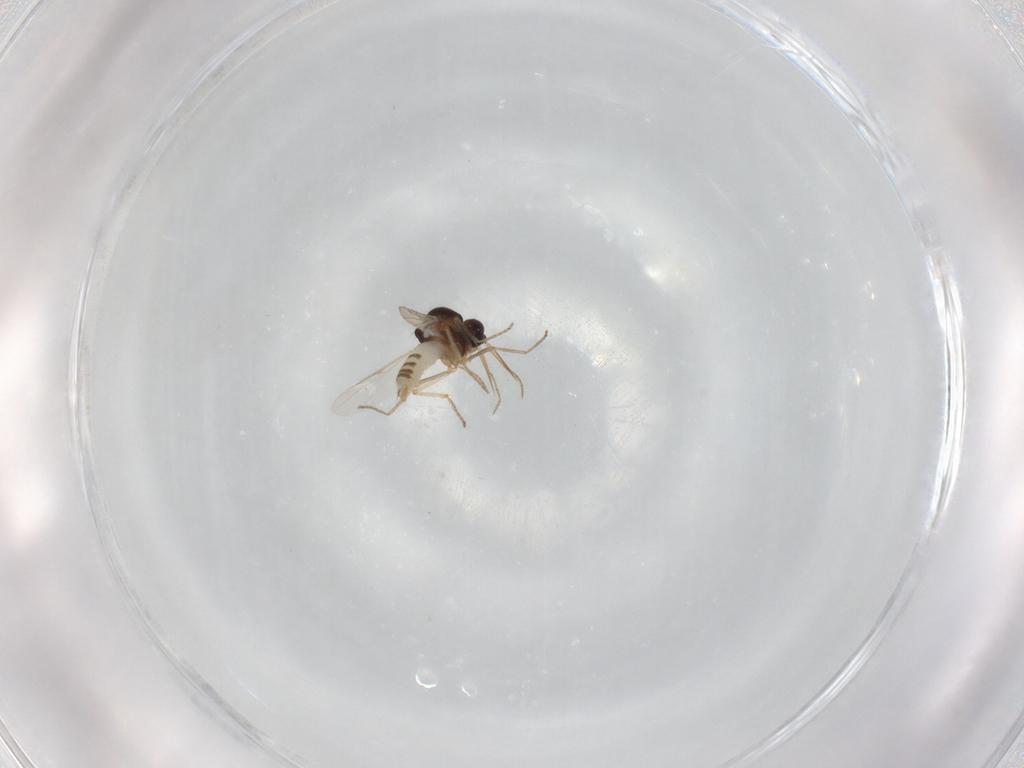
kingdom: Animalia
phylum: Arthropoda
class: Insecta
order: Diptera
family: Ceratopogonidae
